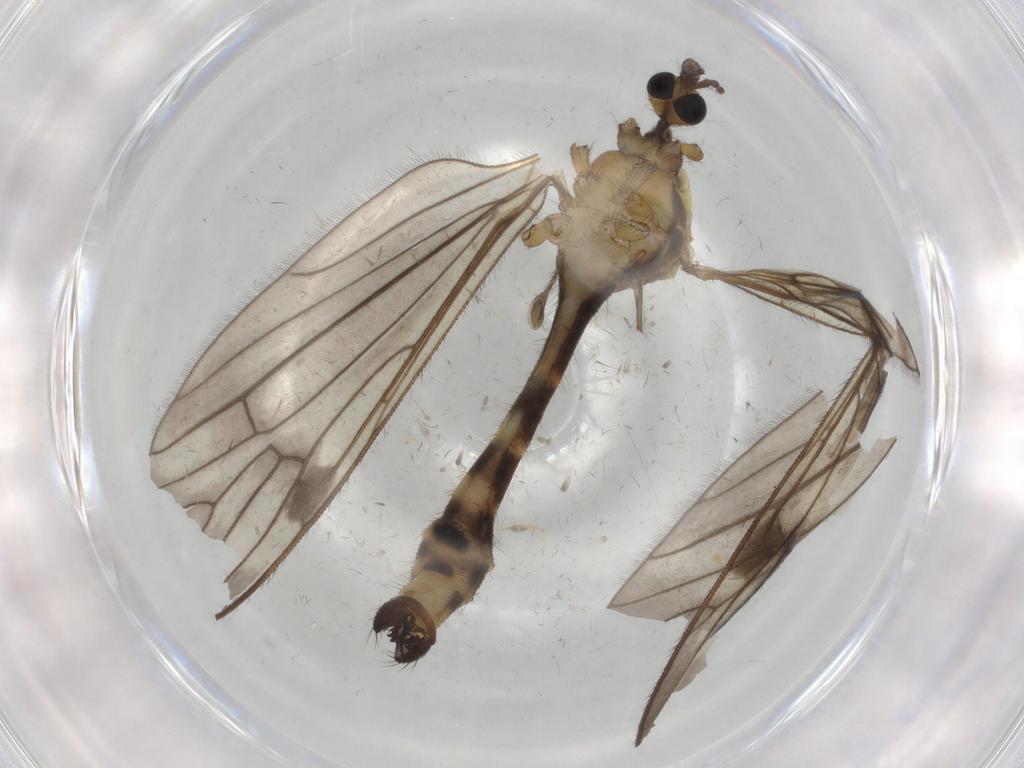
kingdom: Animalia
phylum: Arthropoda
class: Insecta
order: Diptera
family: Limoniidae
